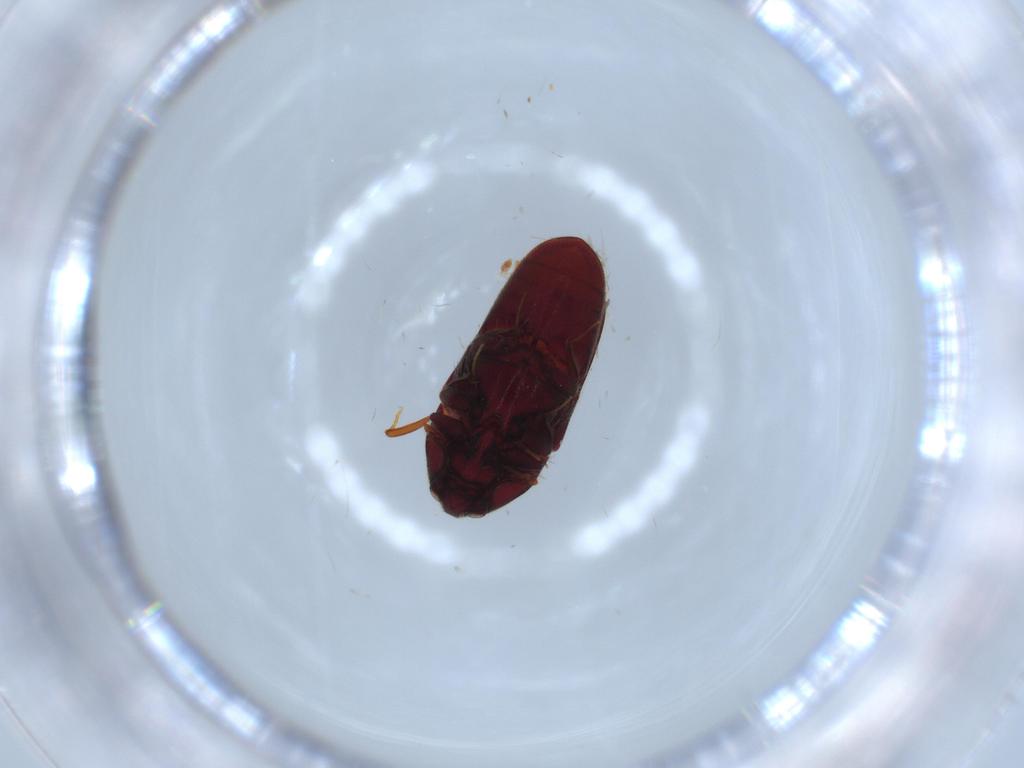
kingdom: Animalia
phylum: Arthropoda
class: Insecta
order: Coleoptera
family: Throscidae
